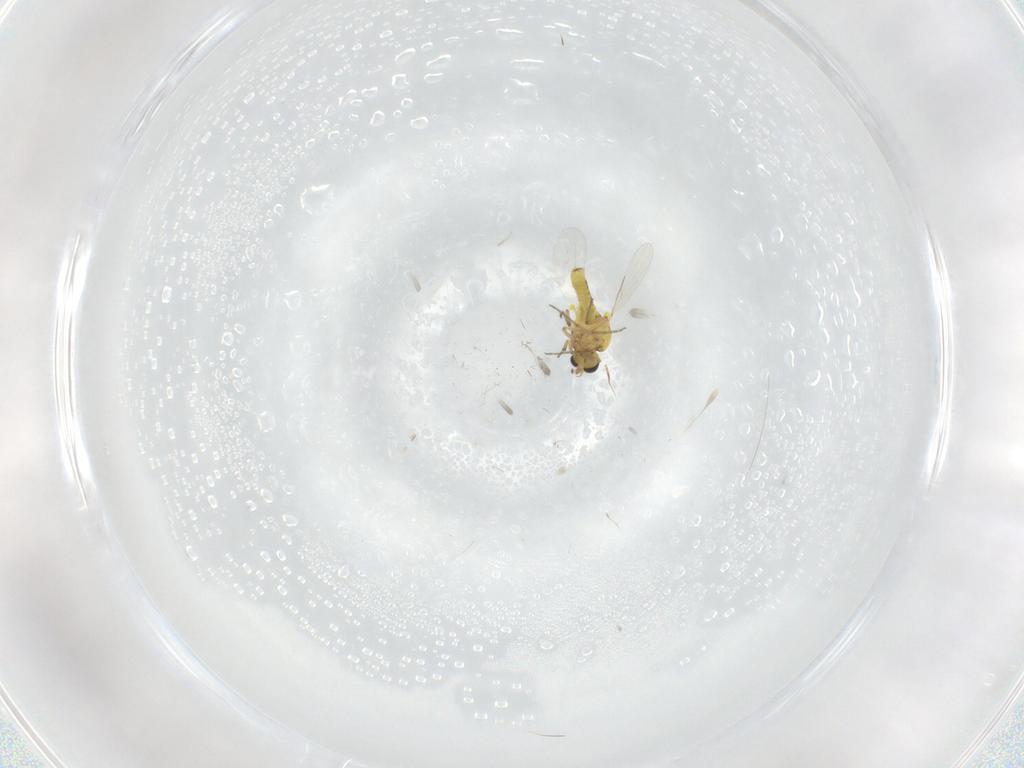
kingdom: Animalia
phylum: Arthropoda
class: Insecta
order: Diptera
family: Ceratopogonidae
